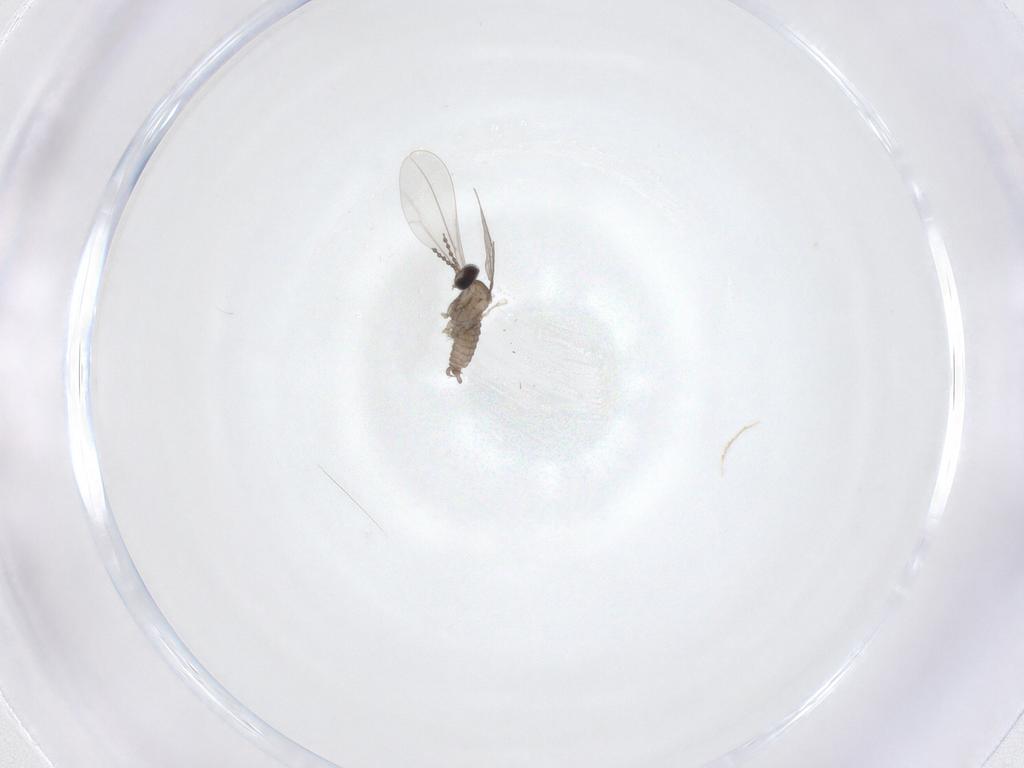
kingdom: Animalia
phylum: Arthropoda
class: Insecta
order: Diptera
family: Cecidomyiidae
